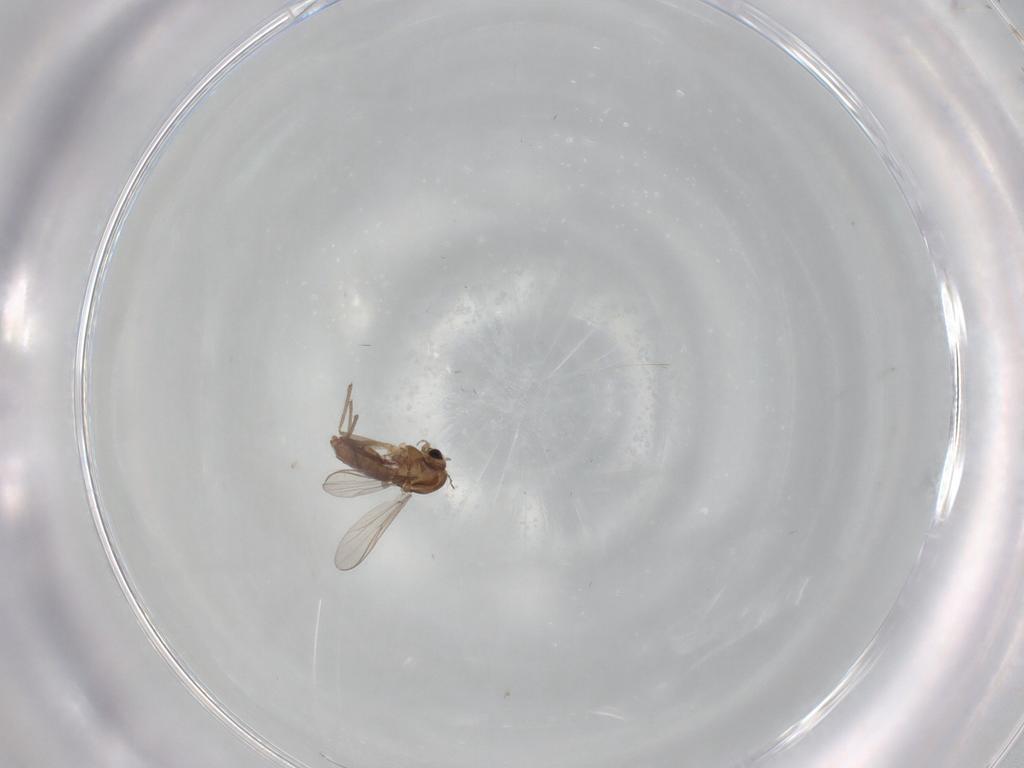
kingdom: Animalia
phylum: Arthropoda
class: Insecta
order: Diptera
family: Chironomidae
